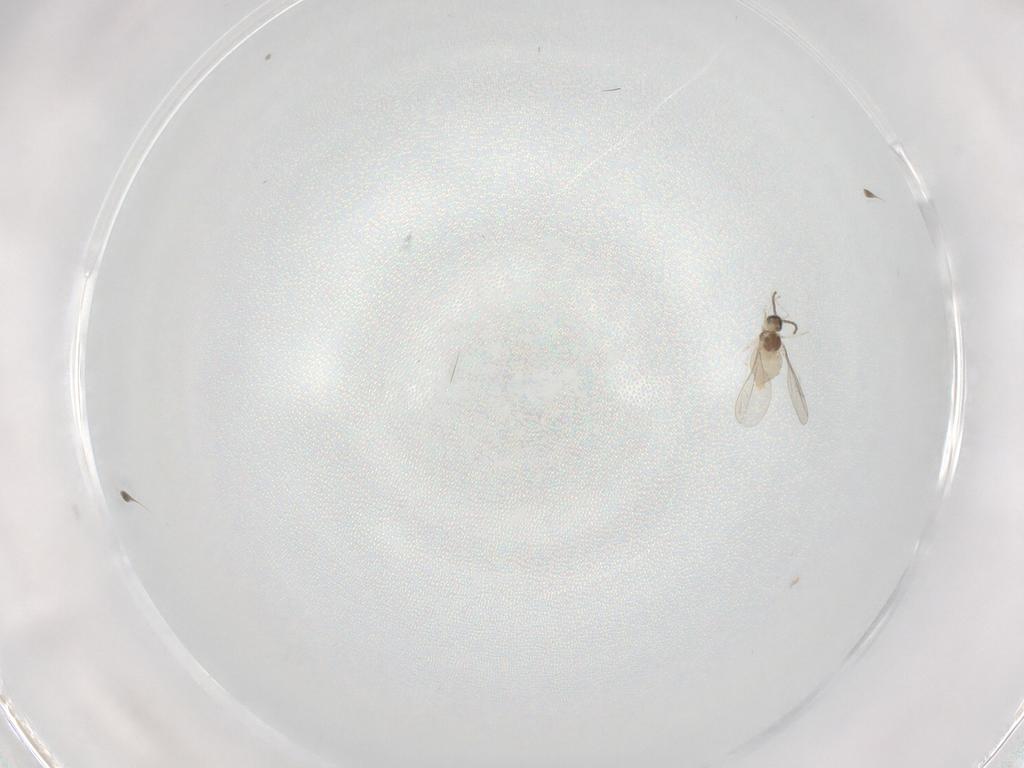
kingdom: Animalia
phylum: Arthropoda
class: Insecta
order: Diptera
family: Cecidomyiidae
